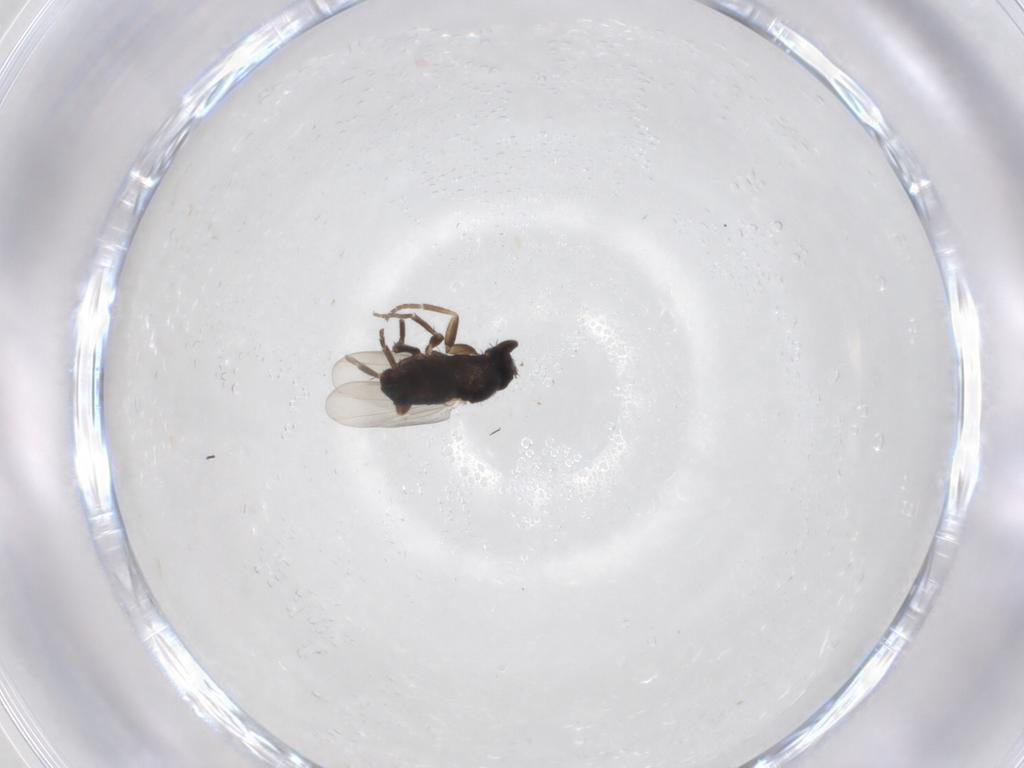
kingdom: Animalia
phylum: Arthropoda
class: Insecta
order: Diptera
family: Phoridae
